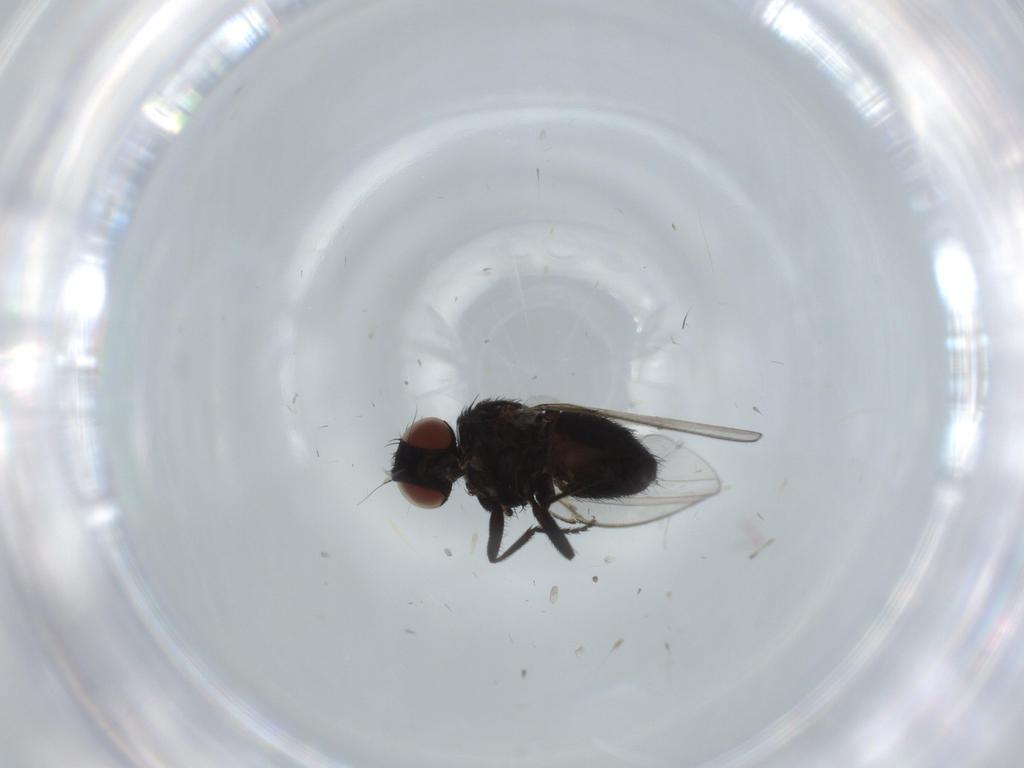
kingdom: Animalia
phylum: Arthropoda
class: Insecta
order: Diptera
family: Milichiidae
